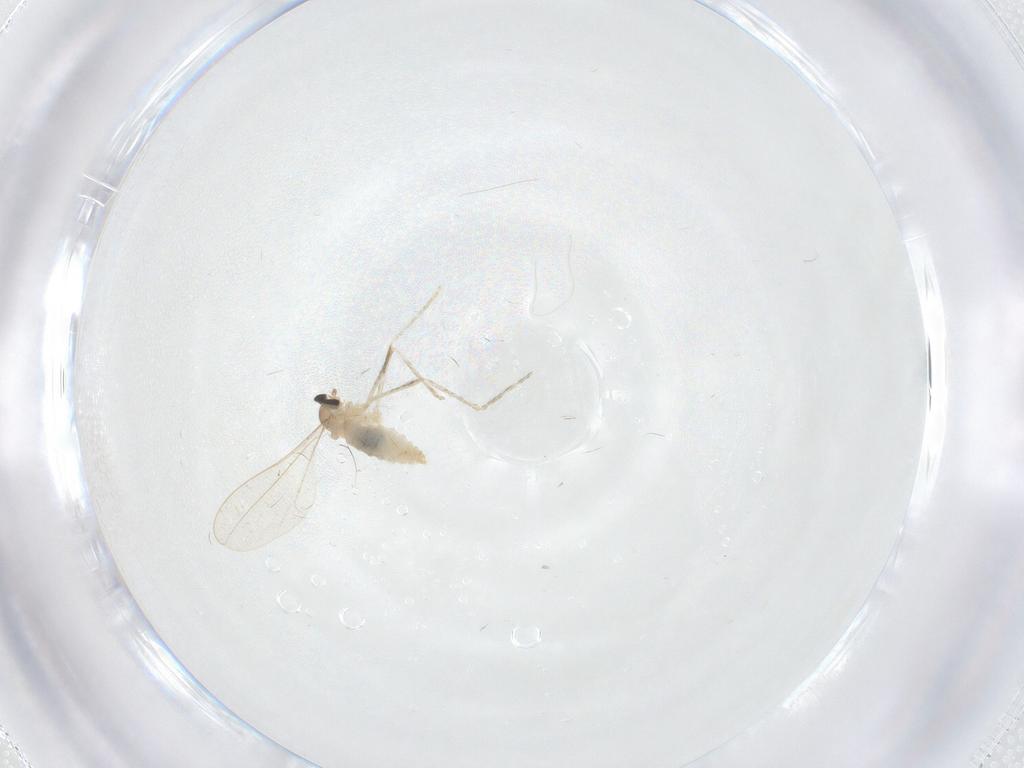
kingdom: Animalia
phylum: Arthropoda
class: Insecta
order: Diptera
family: Cecidomyiidae
